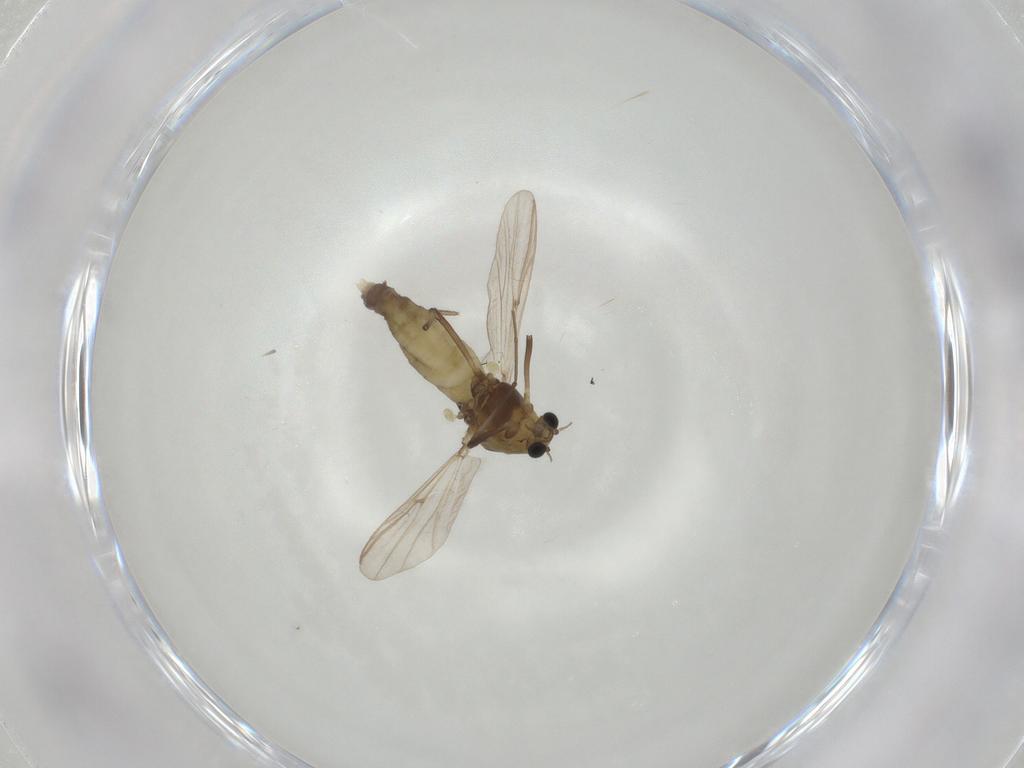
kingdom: Animalia
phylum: Arthropoda
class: Insecta
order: Diptera
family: Sciaridae
